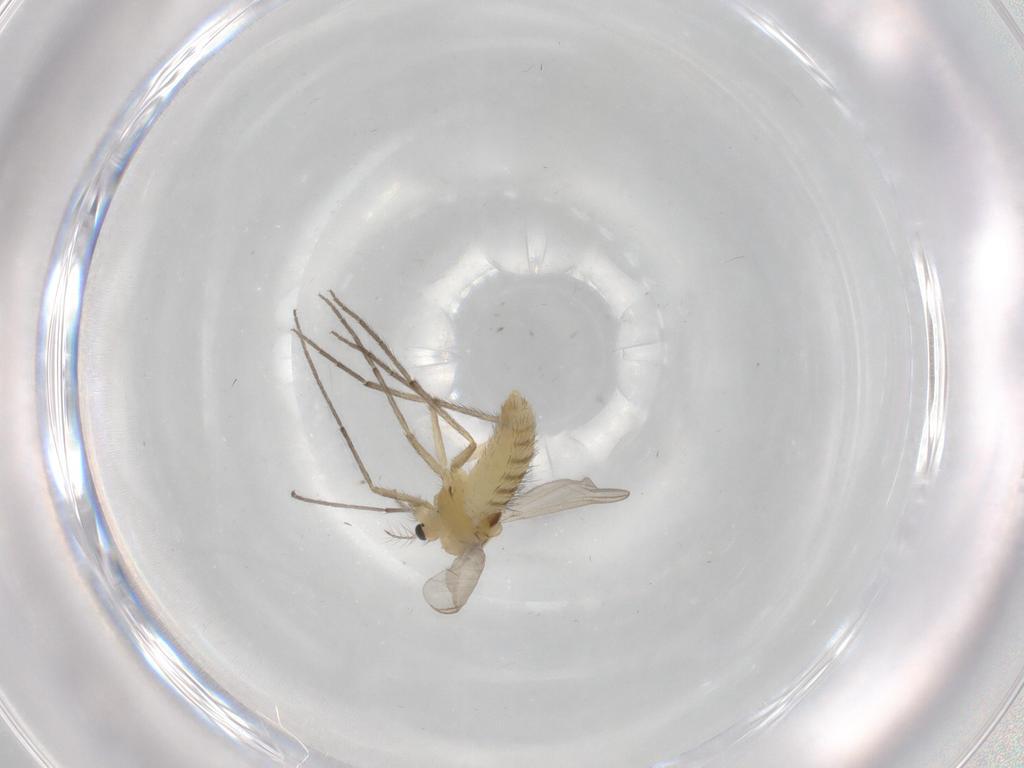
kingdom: Animalia
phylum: Arthropoda
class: Insecta
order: Diptera
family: Chironomidae
